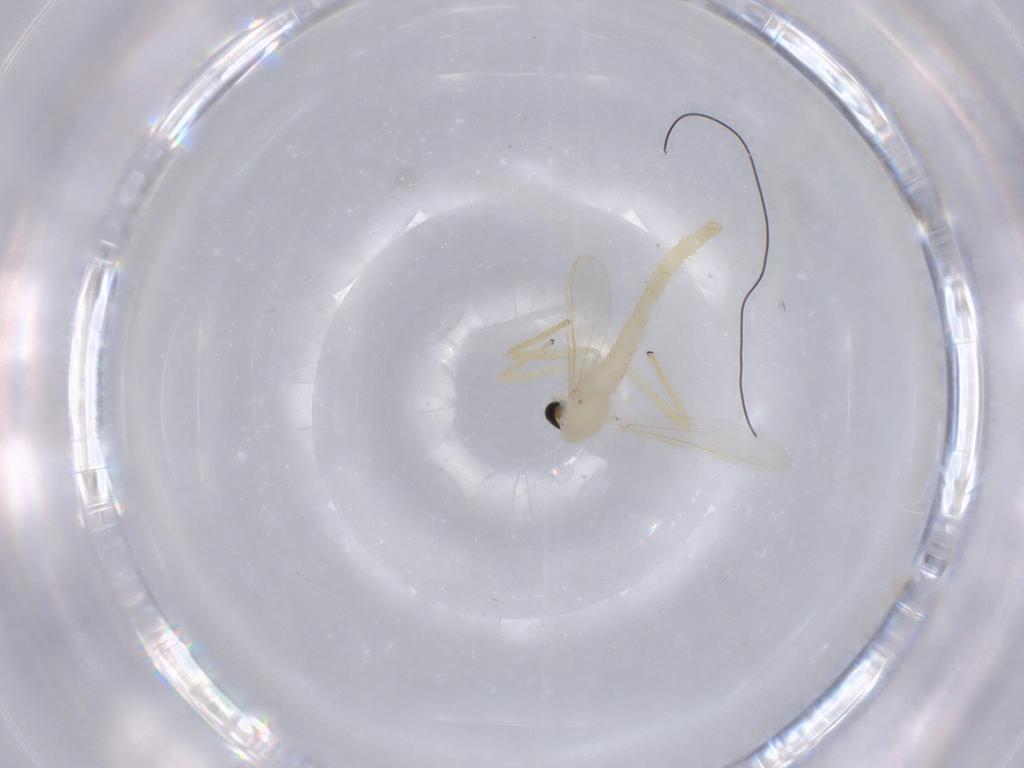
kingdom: Animalia
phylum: Arthropoda
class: Insecta
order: Diptera
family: Chironomidae
